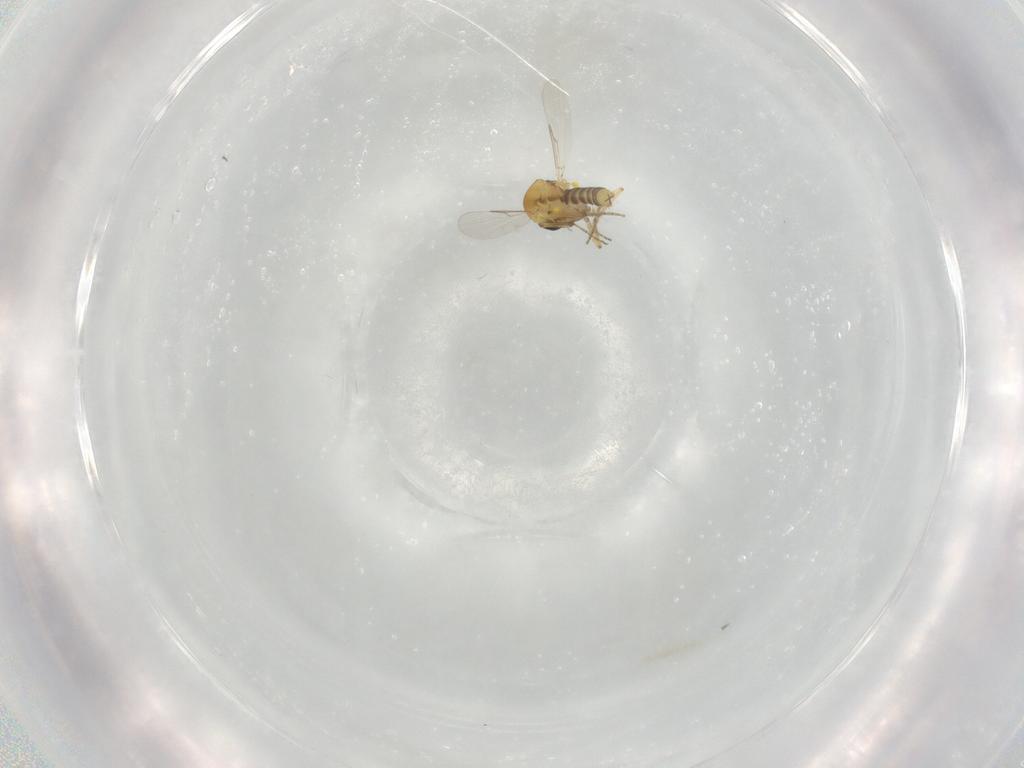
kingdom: Animalia
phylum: Arthropoda
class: Insecta
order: Diptera
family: Ceratopogonidae
